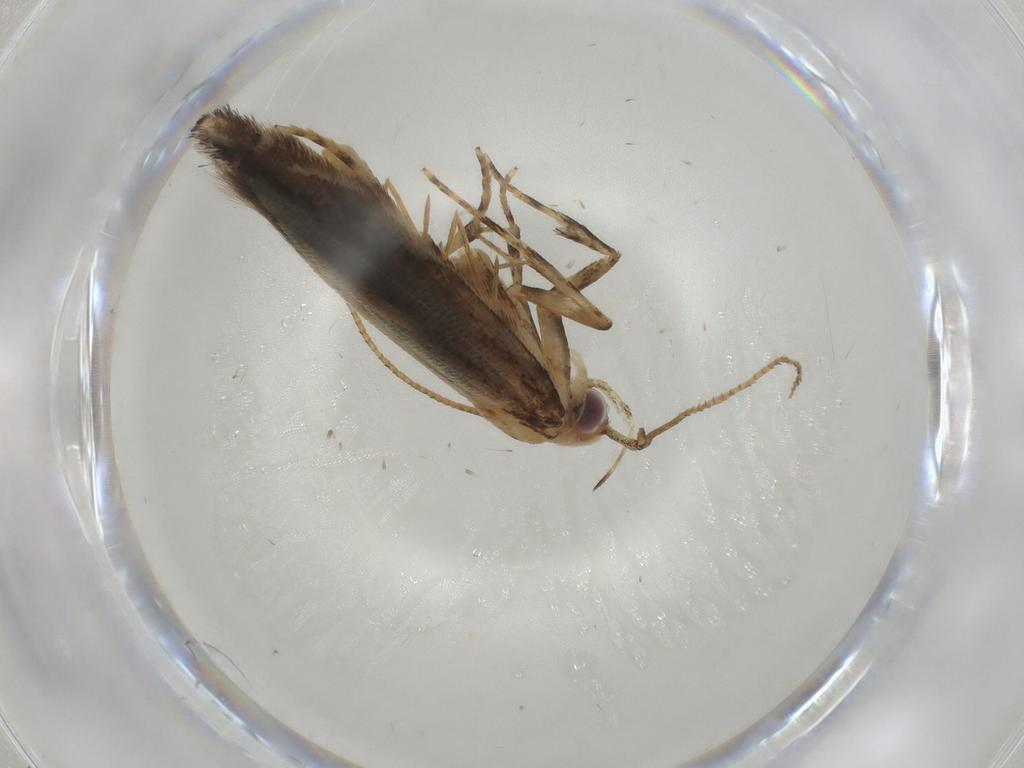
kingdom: Animalia
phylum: Arthropoda
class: Insecta
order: Lepidoptera
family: Cosmopterigidae
